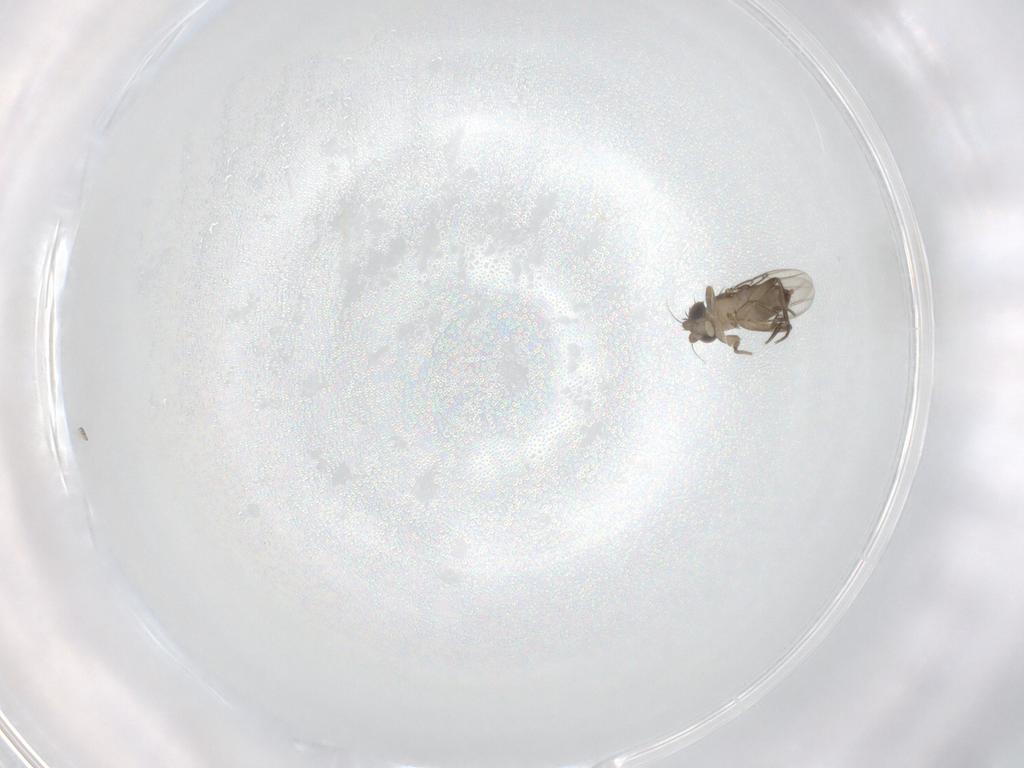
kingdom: Animalia
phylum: Arthropoda
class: Insecta
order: Diptera
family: Phoridae
